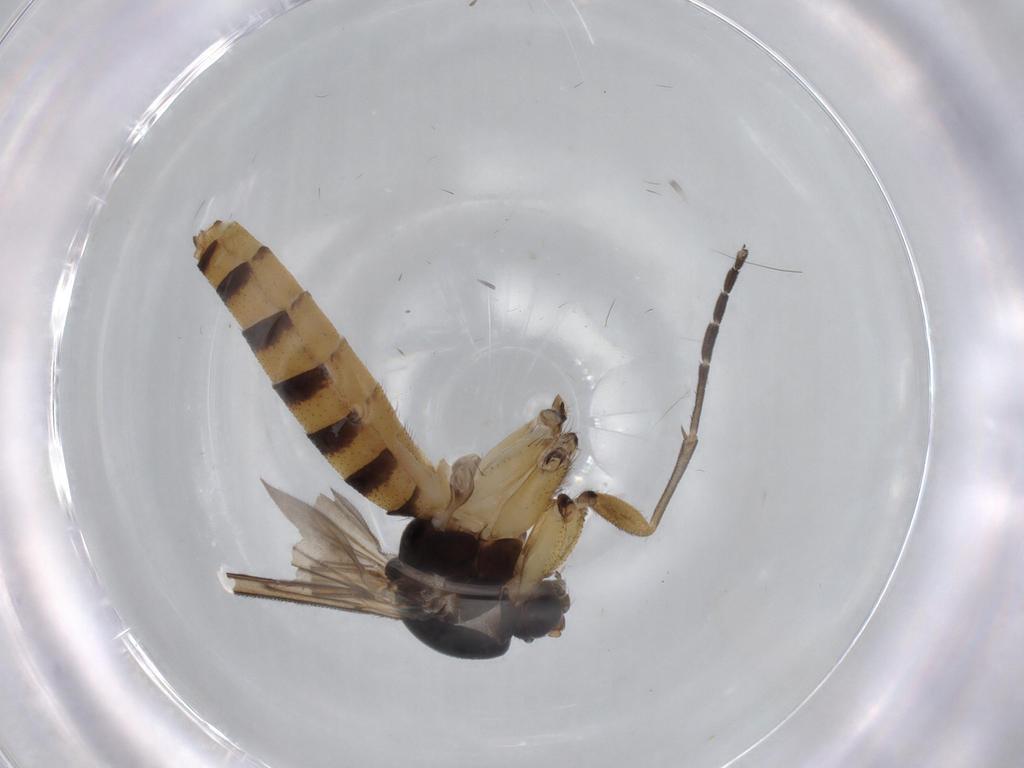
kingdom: Animalia
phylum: Arthropoda
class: Insecta
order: Diptera
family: Mycetophilidae
